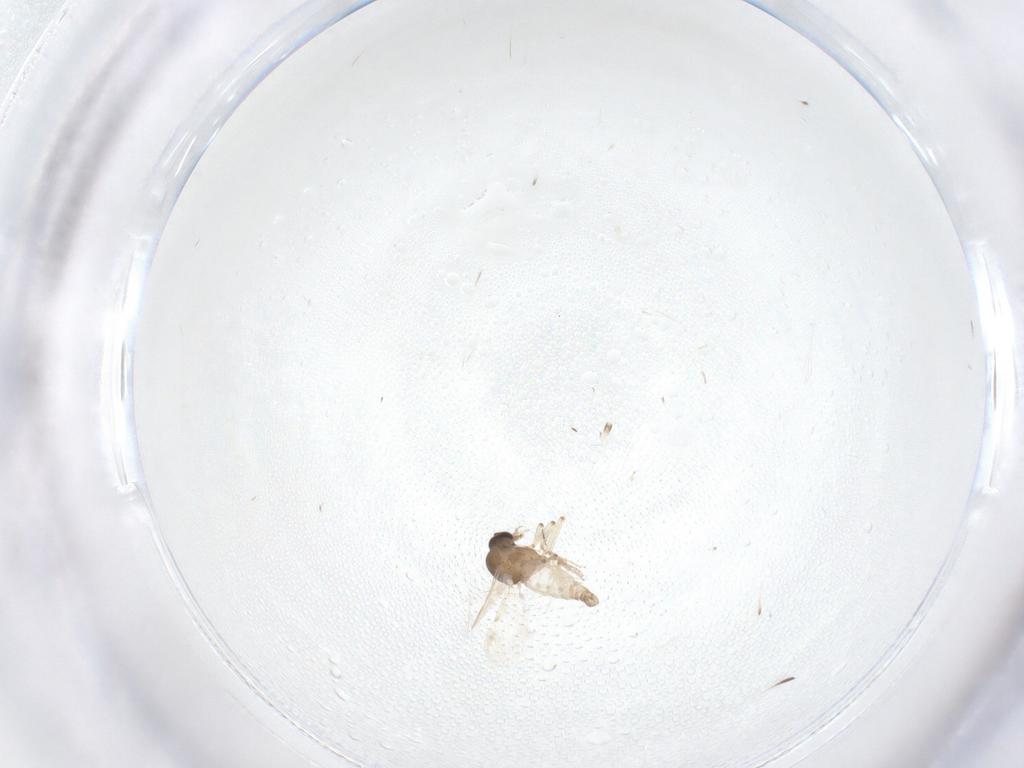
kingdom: Animalia
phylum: Arthropoda
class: Insecta
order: Diptera
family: Ceratopogonidae
